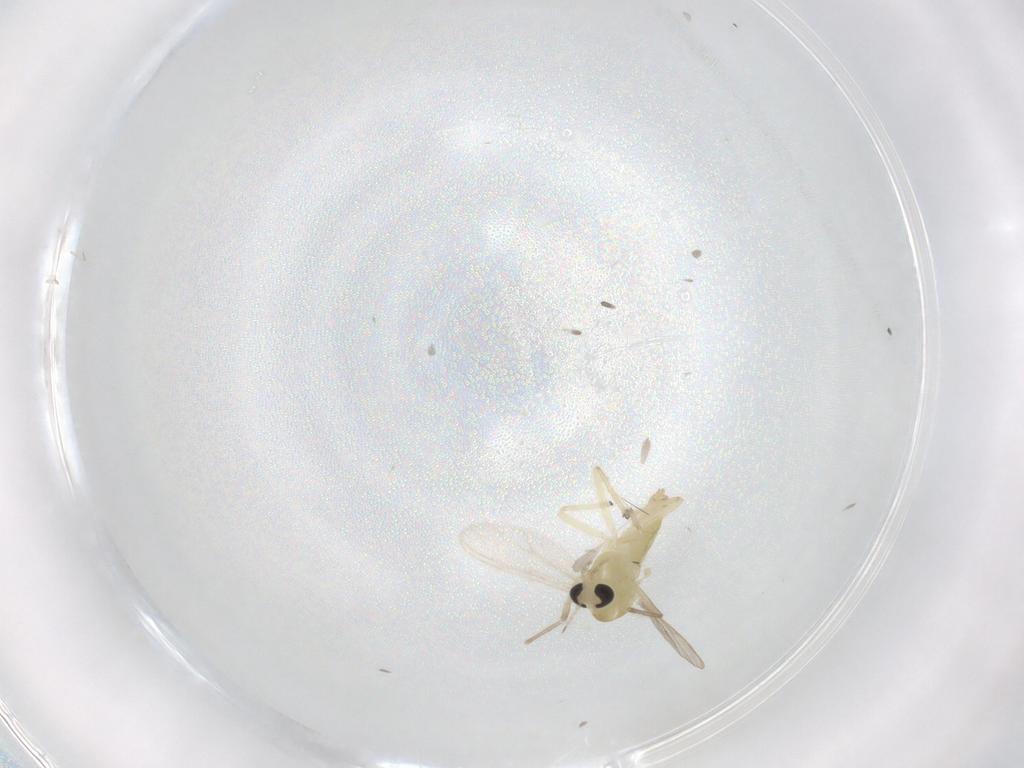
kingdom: Animalia
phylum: Arthropoda
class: Insecta
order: Diptera
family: Chironomidae
